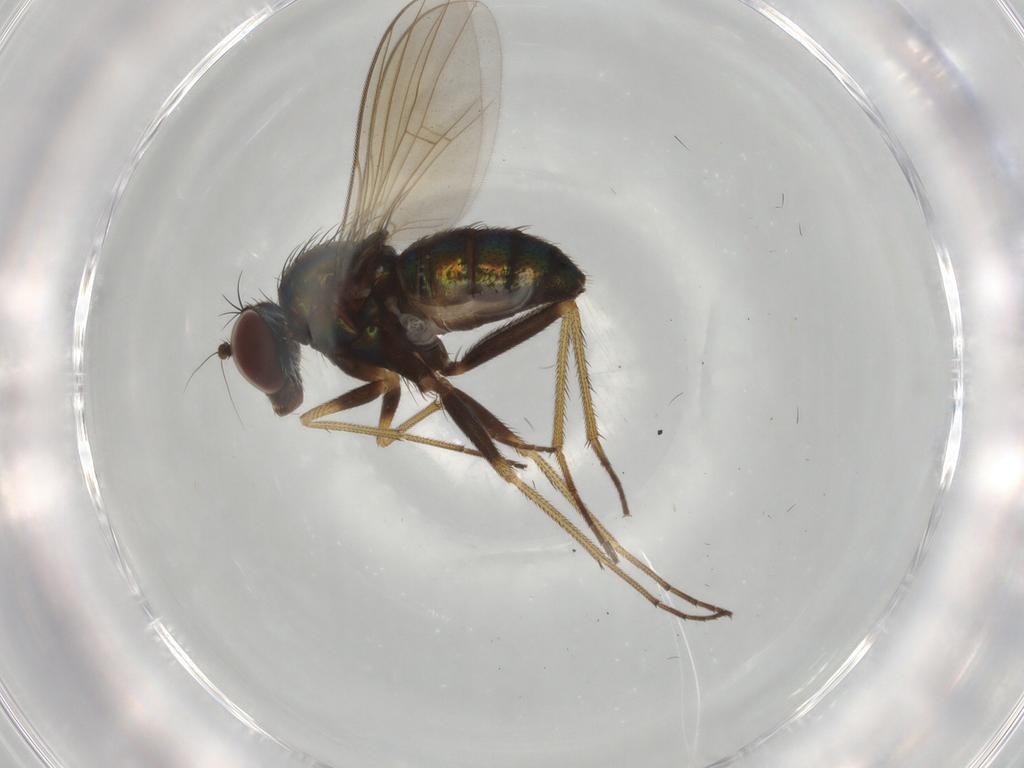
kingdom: Animalia
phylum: Arthropoda
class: Insecta
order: Diptera
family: Dolichopodidae
